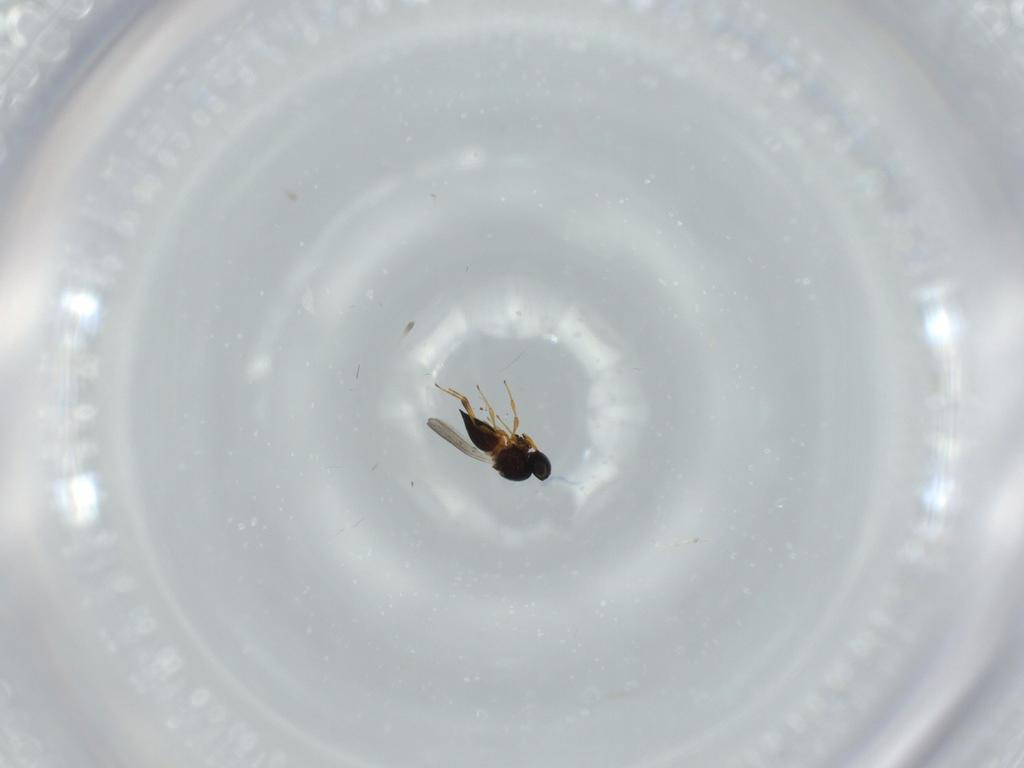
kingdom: Animalia
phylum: Arthropoda
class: Insecta
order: Hymenoptera
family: Platygastridae
